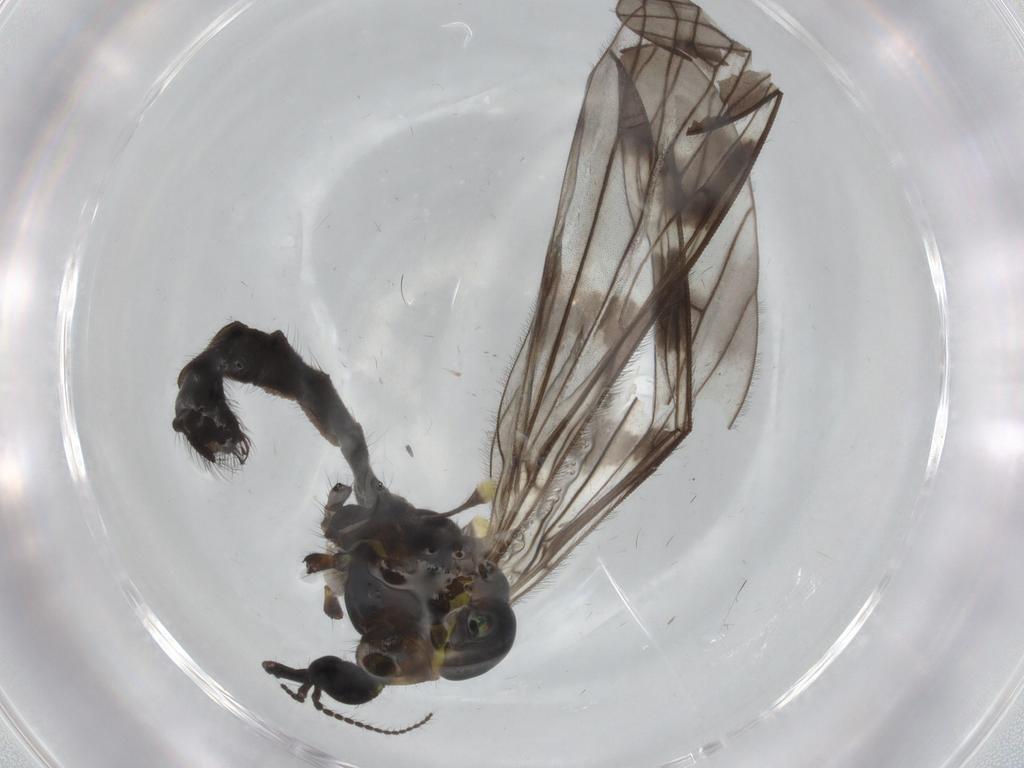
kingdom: Animalia
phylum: Arthropoda
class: Insecta
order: Diptera
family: Limoniidae
